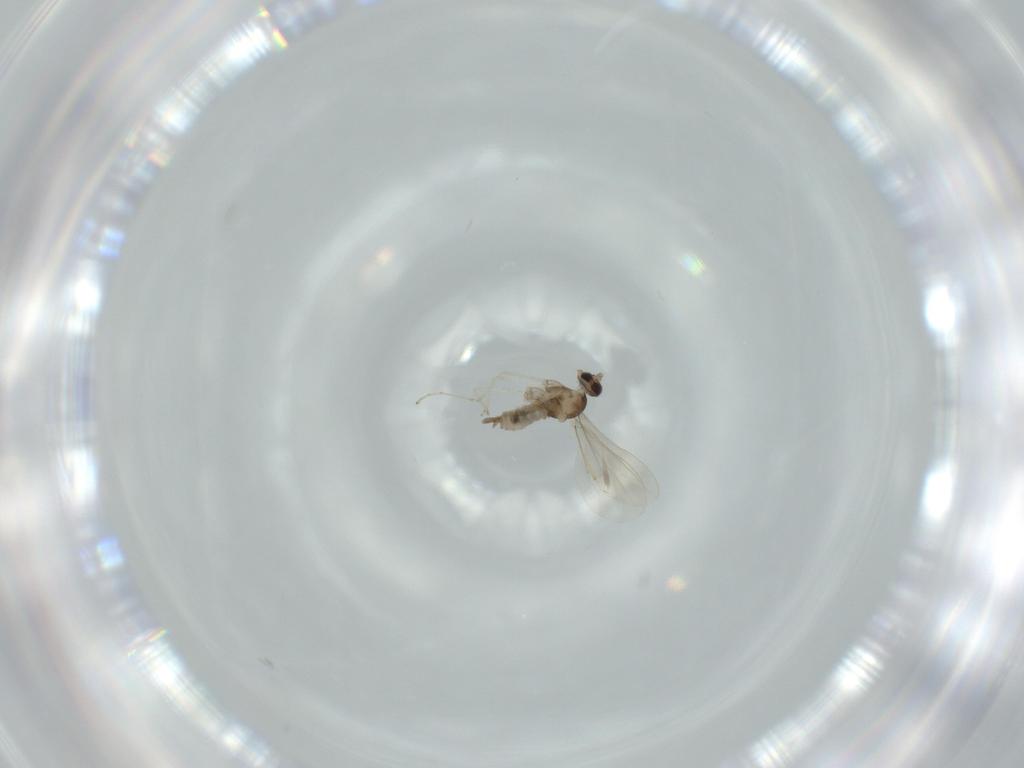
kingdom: Animalia
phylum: Arthropoda
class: Insecta
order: Diptera
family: Cecidomyiidae
